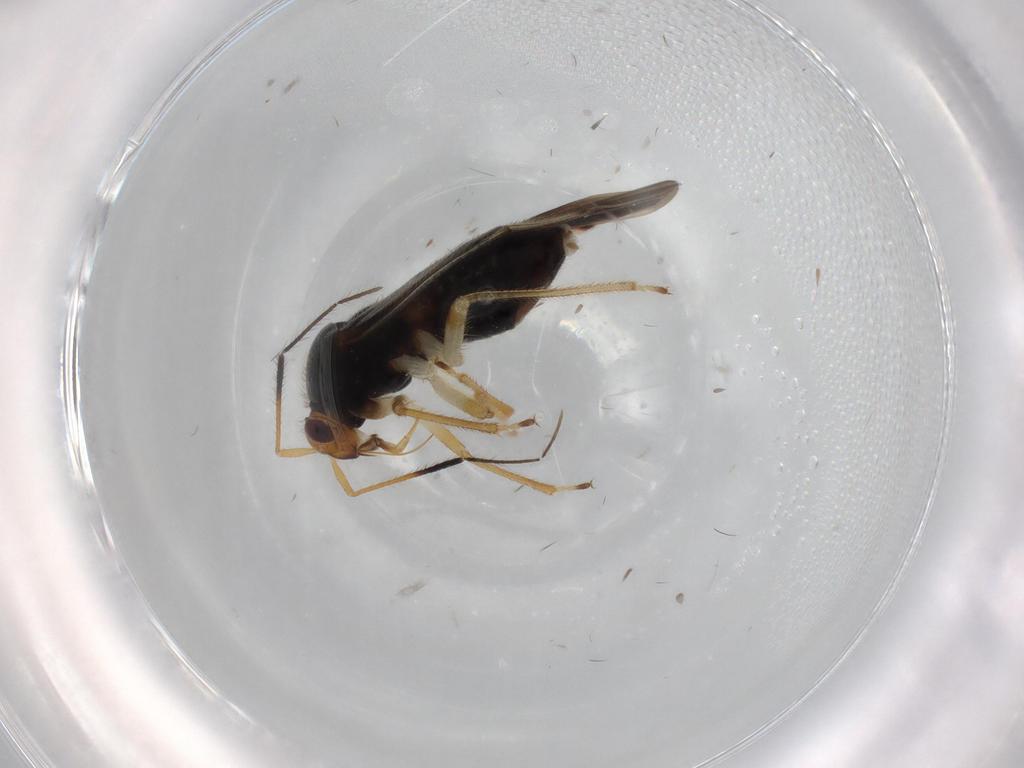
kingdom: Animalia
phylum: Arthropoda
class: Insecta
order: Hemiptera
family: Miridae
